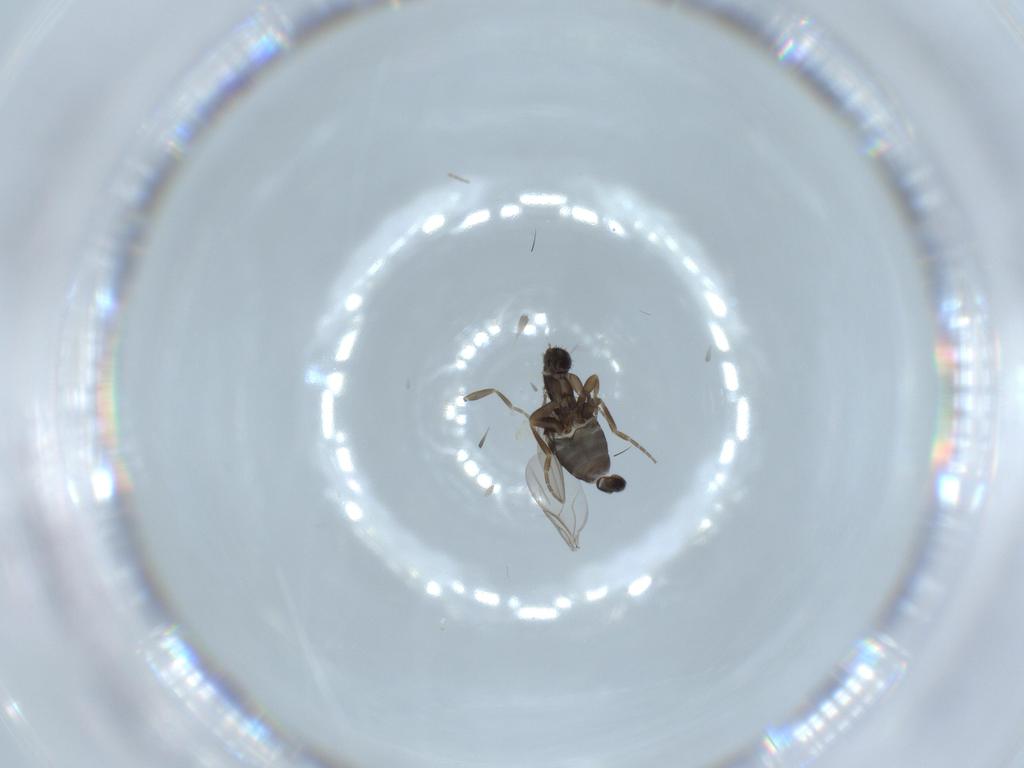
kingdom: Animalia
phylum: Arthropoda
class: Insecta
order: Diptera
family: Phoridae
